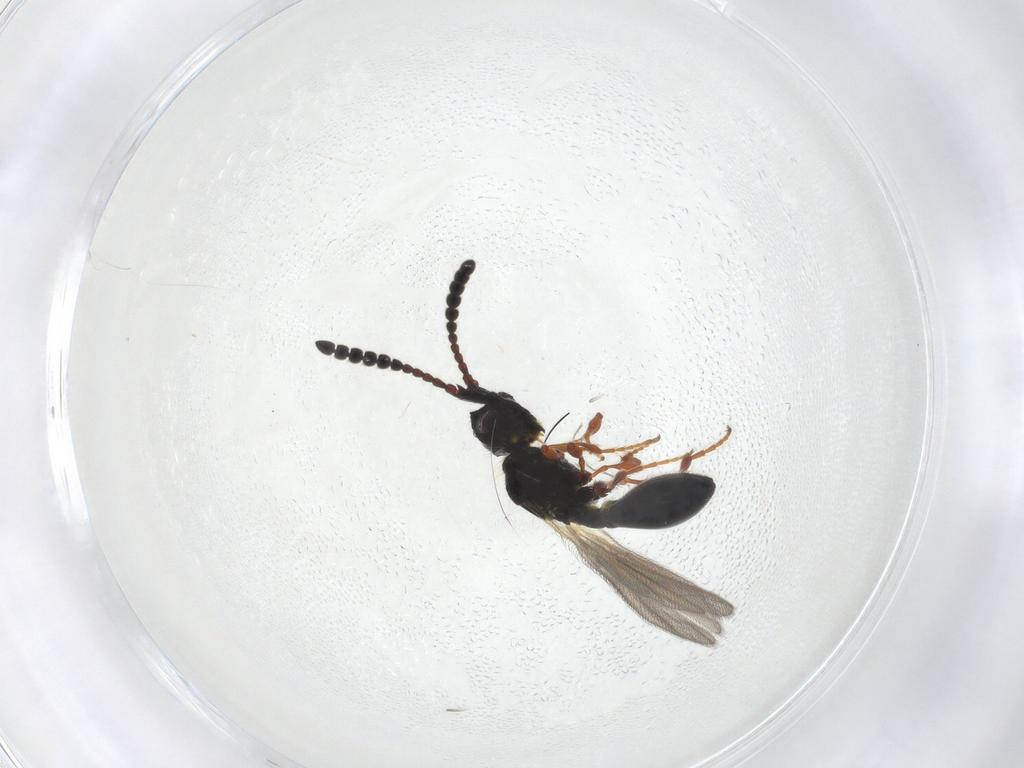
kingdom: Animalia
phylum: Arthropoda
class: Insecta
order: Hymenoptera
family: Diapriidae
